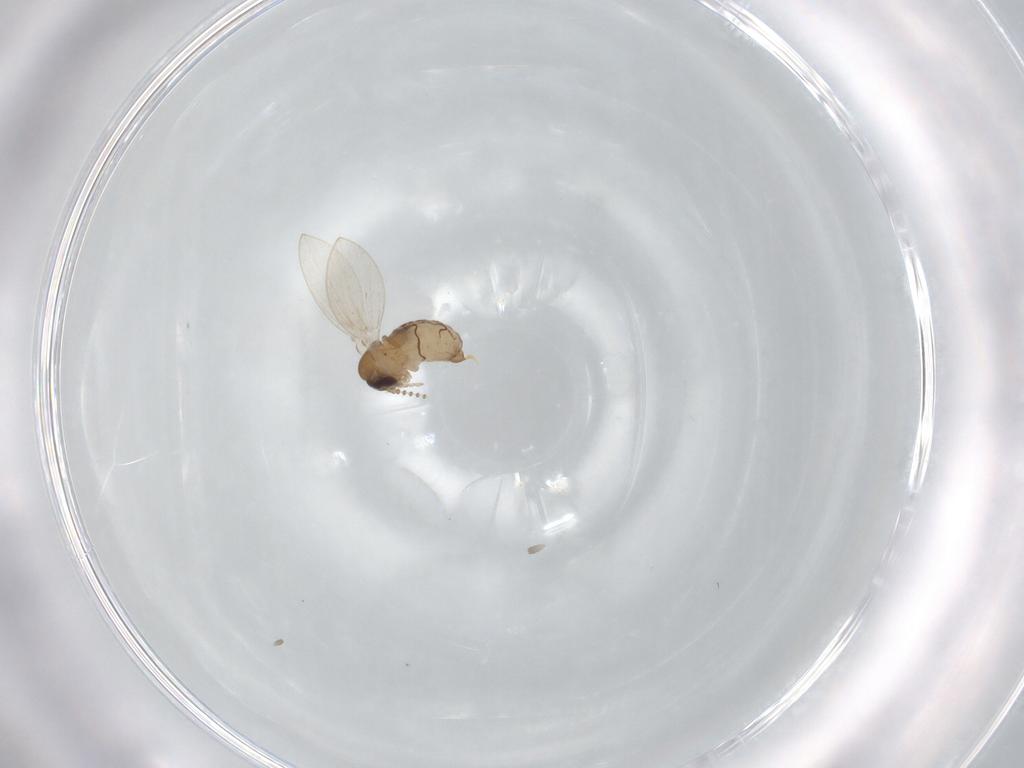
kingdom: Animalia
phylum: Arthropoda
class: Insecta
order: Diptera
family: Psychodidae
